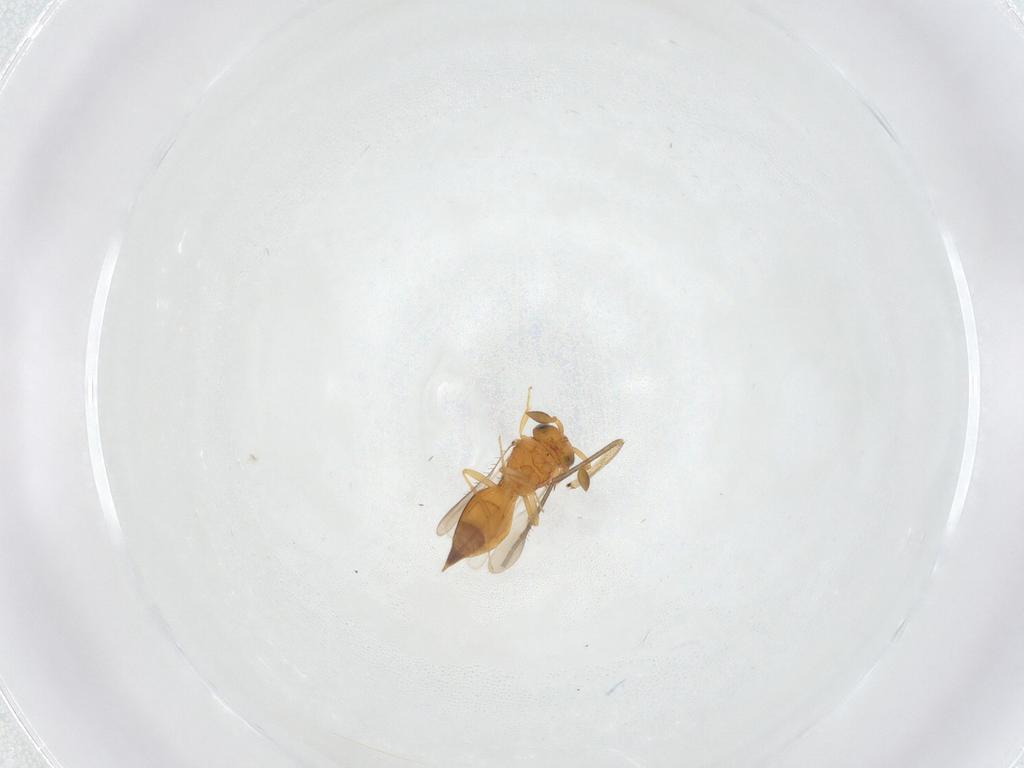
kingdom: Animalia
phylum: Arthropoda
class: Insecta
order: Hymenoptera
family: Scelionidae
